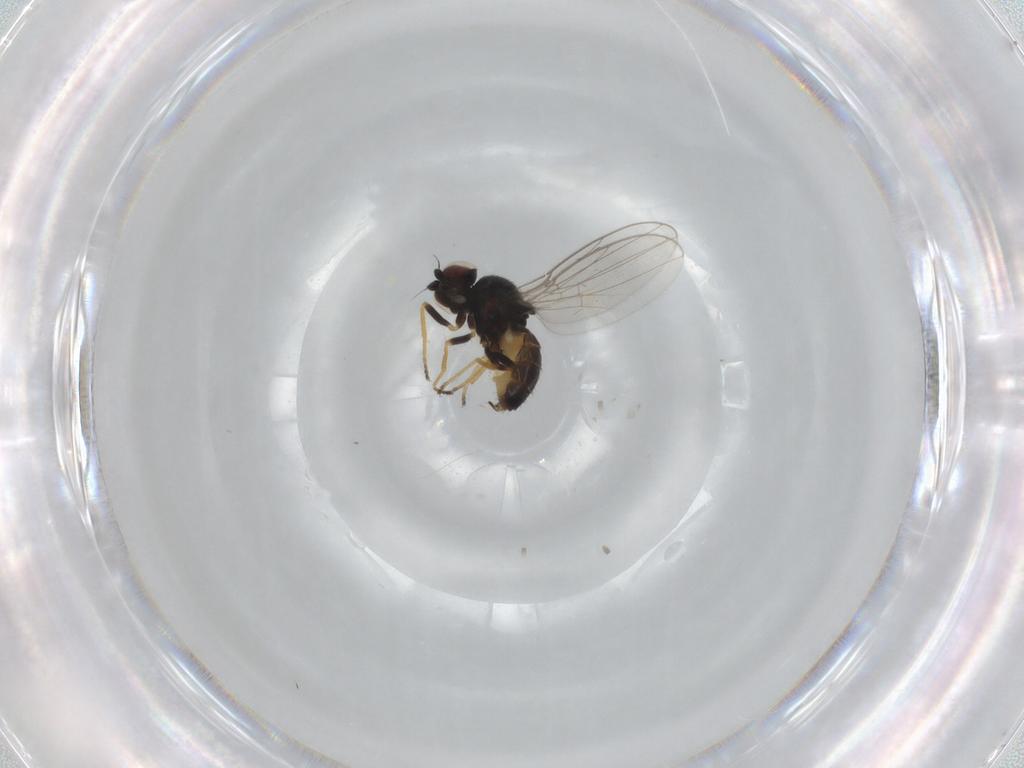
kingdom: Animalia
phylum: Arthropoda
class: Insecta
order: Diptera
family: Chloropidae
